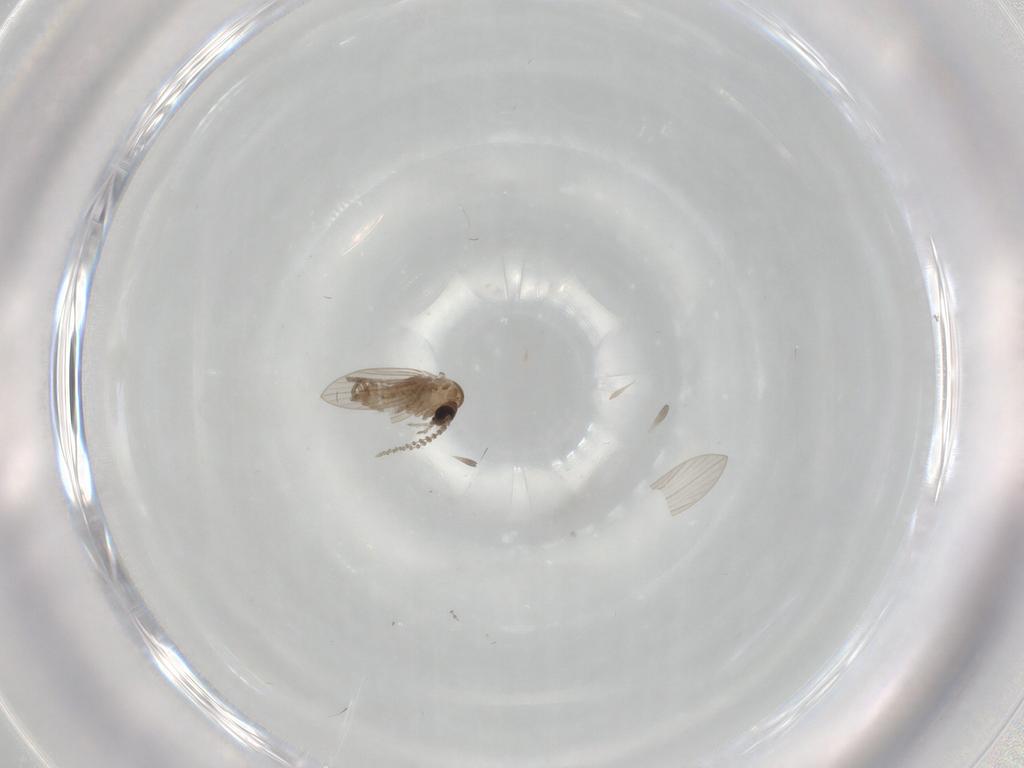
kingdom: Animalia
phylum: Arthropoda
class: Insecta
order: Diptera
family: Psychodidae
